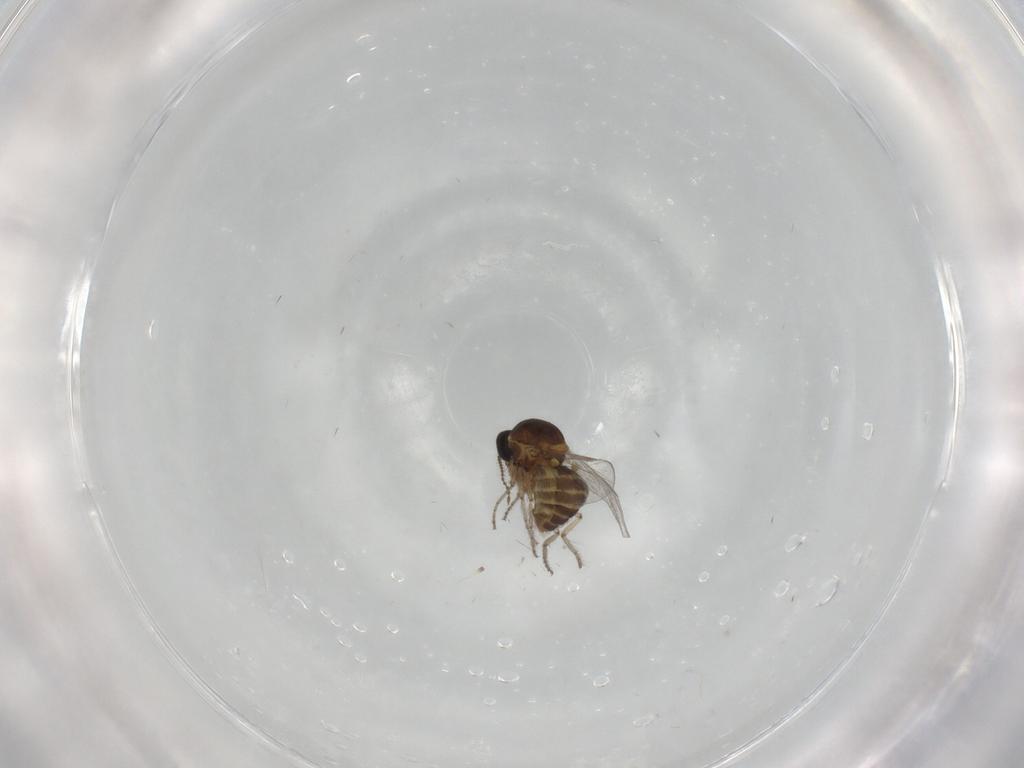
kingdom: Animalia
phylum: Arthropoda
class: Insecta
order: Diptera
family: Ceratopogonidae
